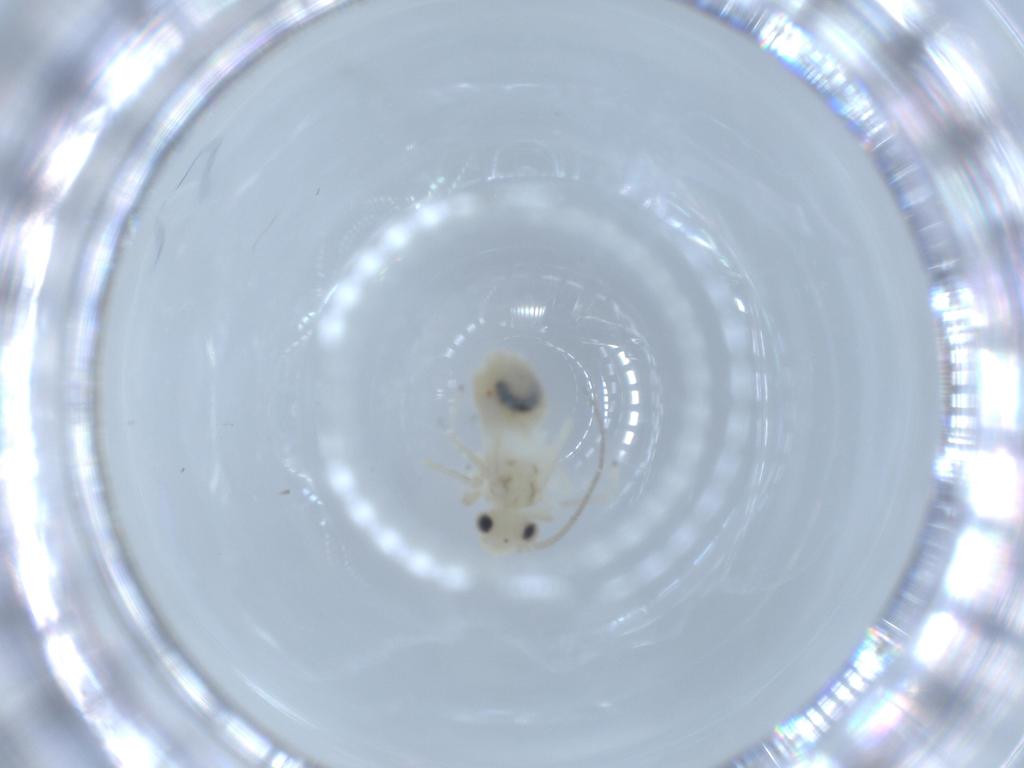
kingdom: Animalia
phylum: Arthropoda
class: Insecta
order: Psocodea
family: Caeciliusidae
